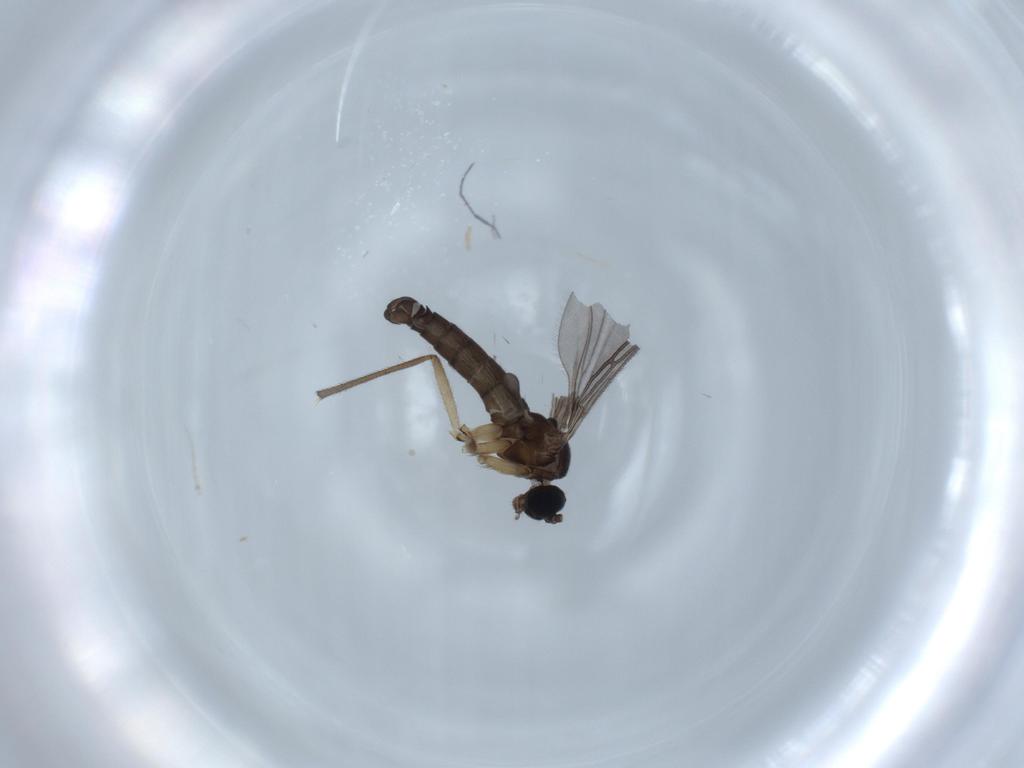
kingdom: Animalia
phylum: Arthropoda
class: Insecta
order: Diptera
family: Sciaridae
